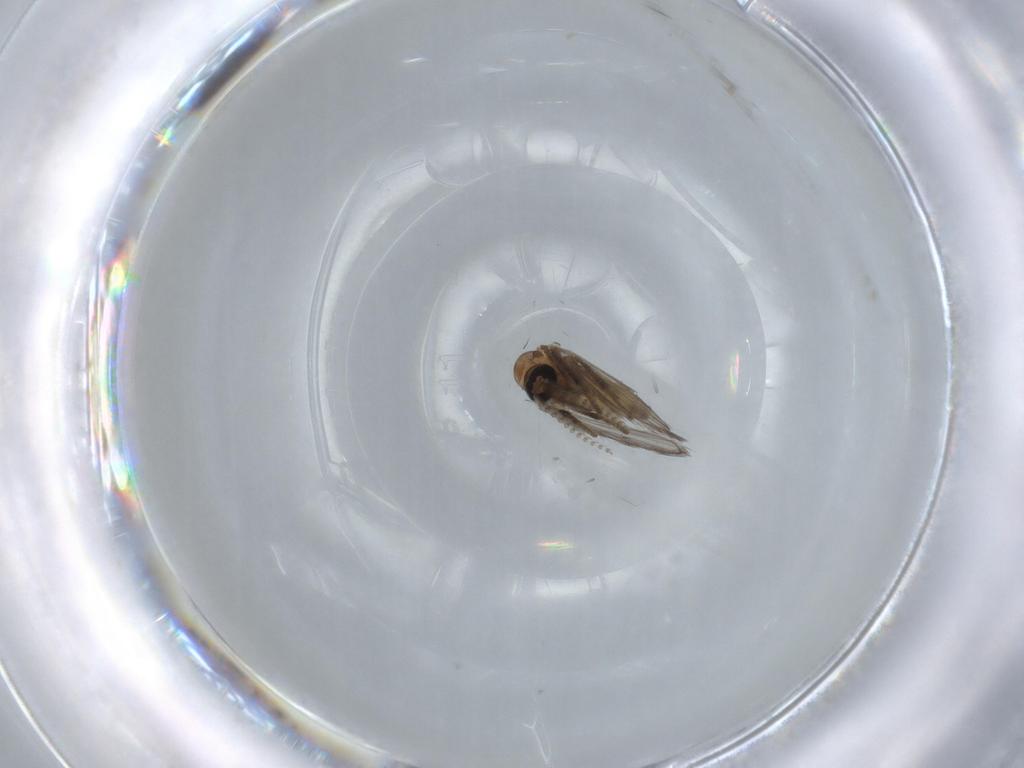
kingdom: Animalia
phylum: Arthropoda
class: Insecta
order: Diptera
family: Psychodidae
